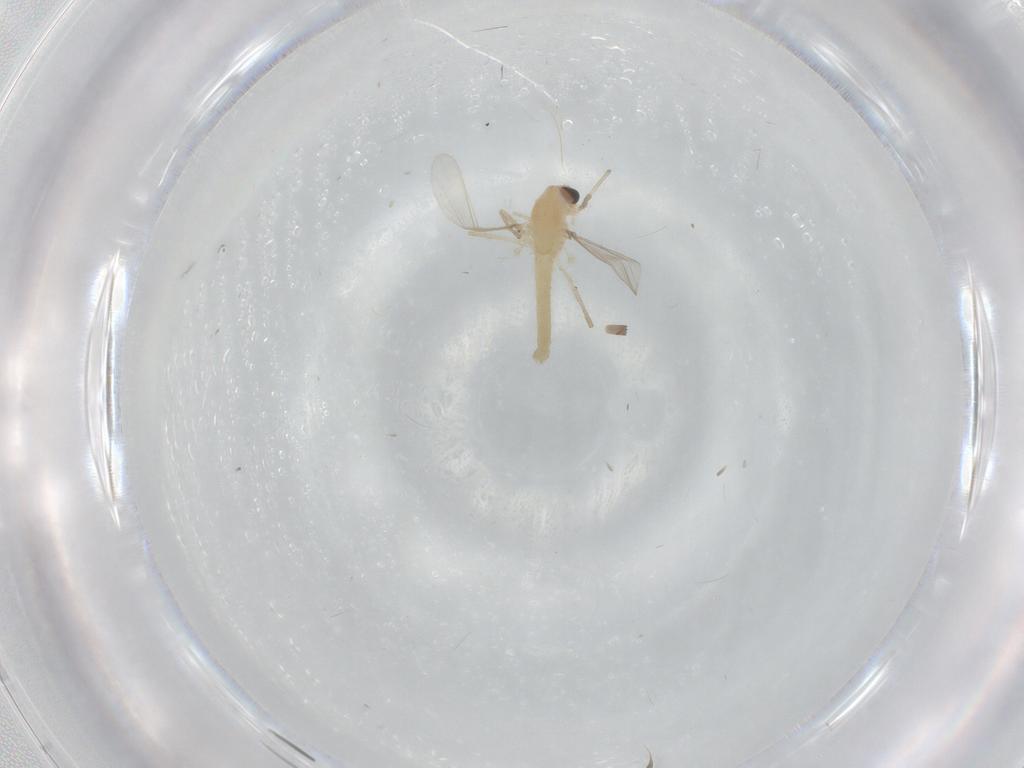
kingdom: Animalia
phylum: Arthropoda
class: Insecta
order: Diptera
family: Chironomidae
